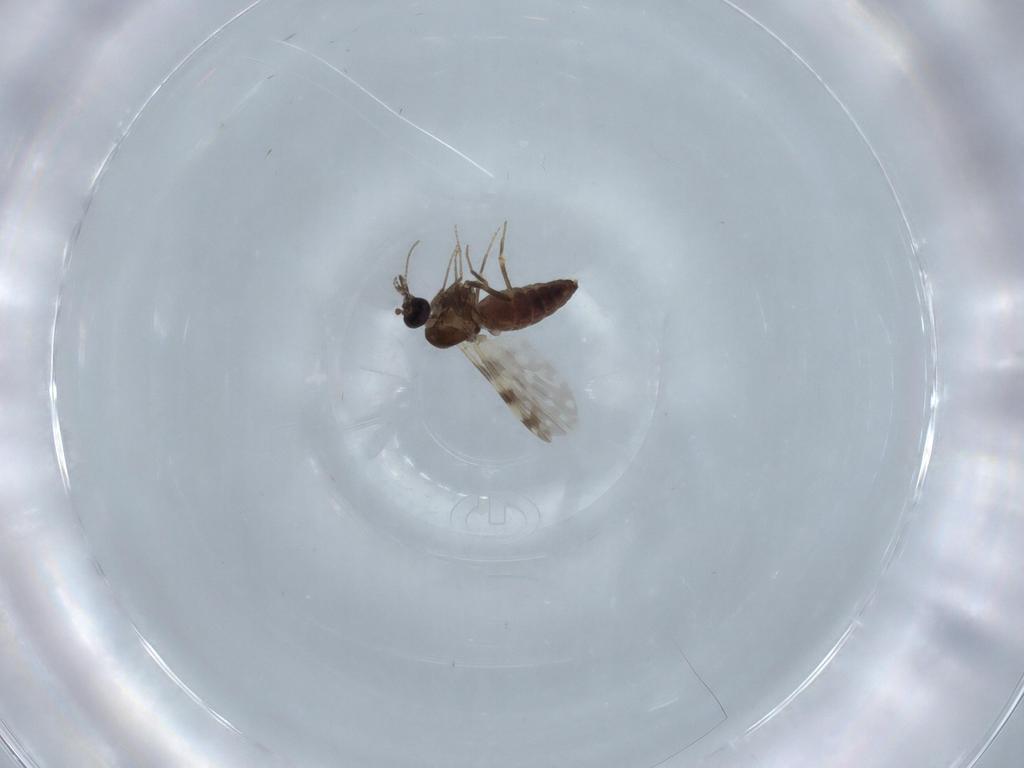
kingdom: Animalia
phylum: Arthropoda
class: Insecta
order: Diptera
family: Ceratopogonidae
